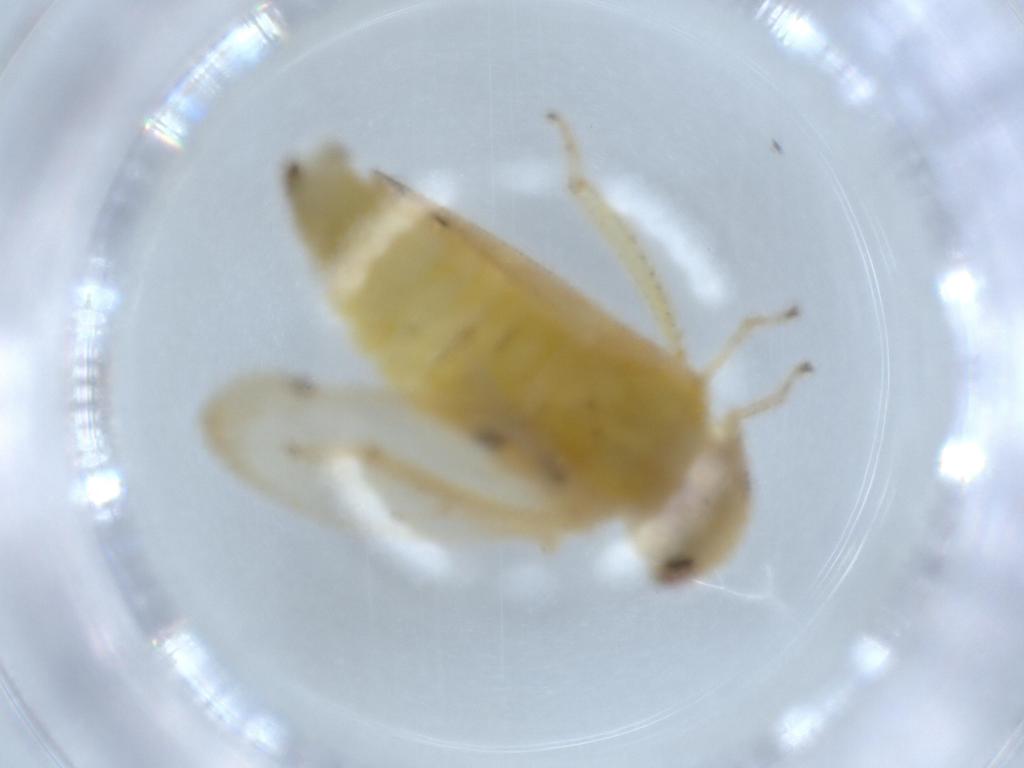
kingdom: Animalia
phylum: Arthropoda
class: Insecta
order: Hemiptera
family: Cicadellidae
